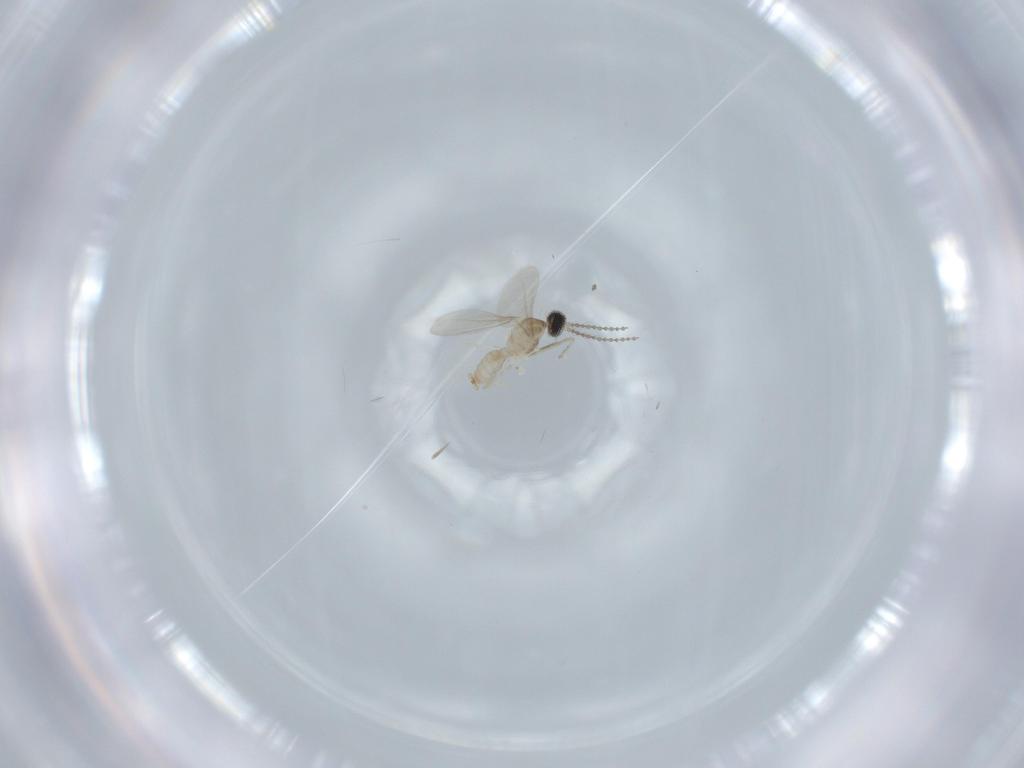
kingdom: Animalia
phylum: Arthropoda
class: Insecta
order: Diptera
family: Cecidomyiidae
